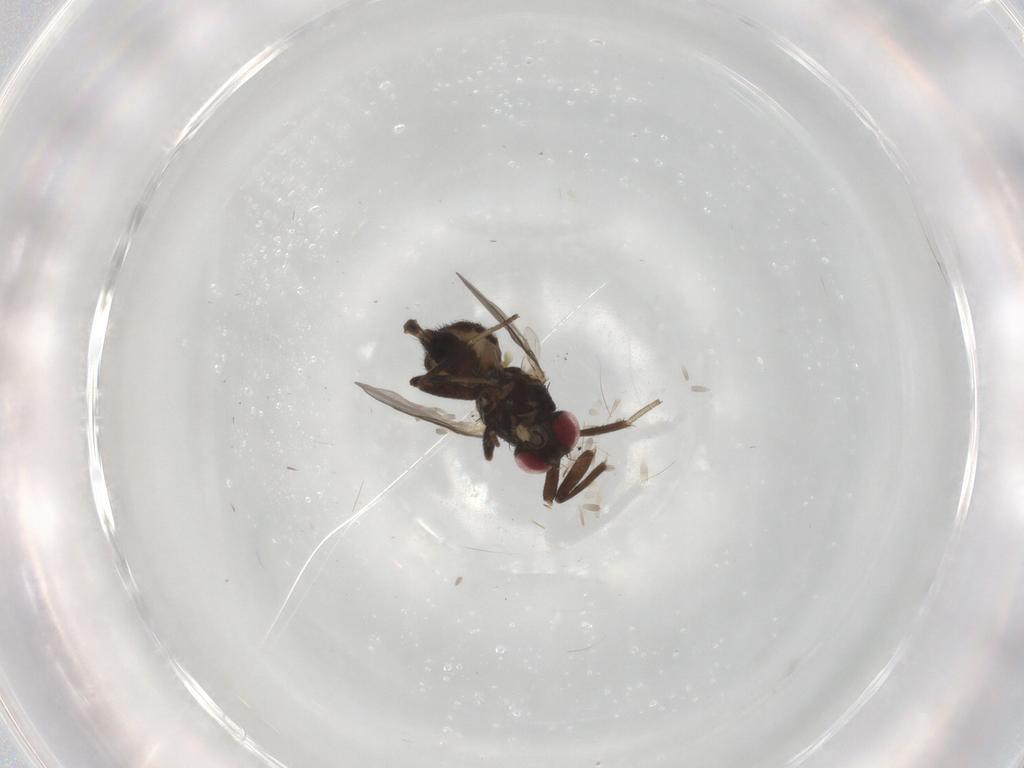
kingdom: Animalia
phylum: Arthropoda
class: Insecta
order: Diptera
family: Agromyzidae
